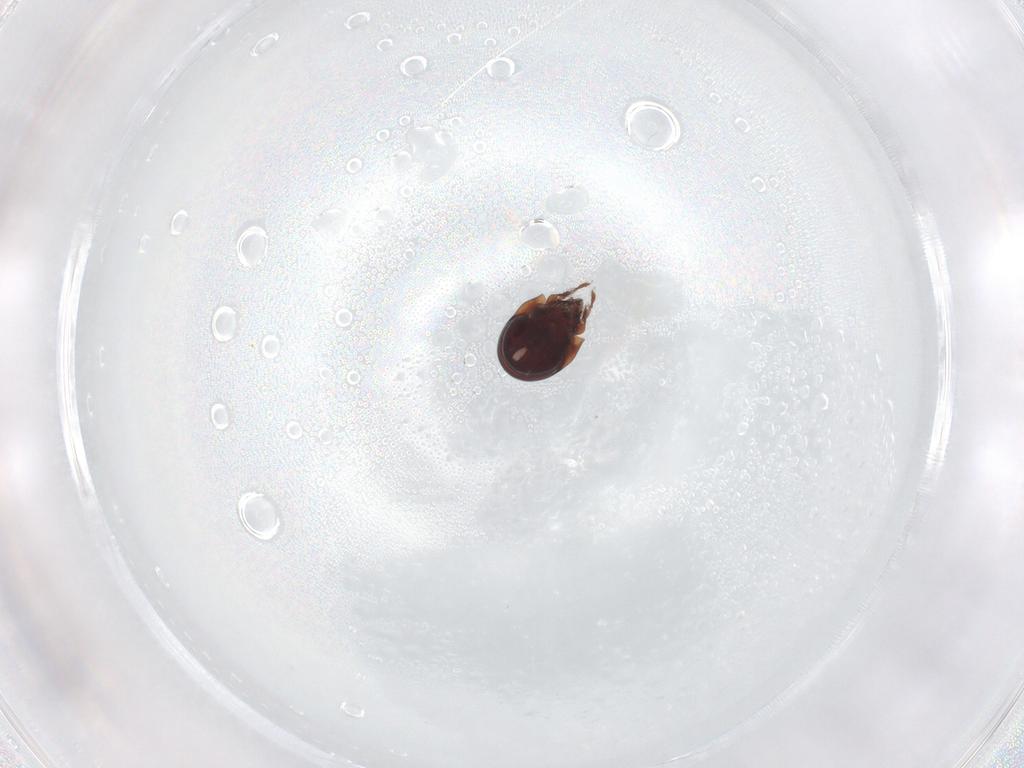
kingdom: Animalia
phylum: Arthropoda
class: Arachnida
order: Sarcoptiformes
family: Humerobatidae
